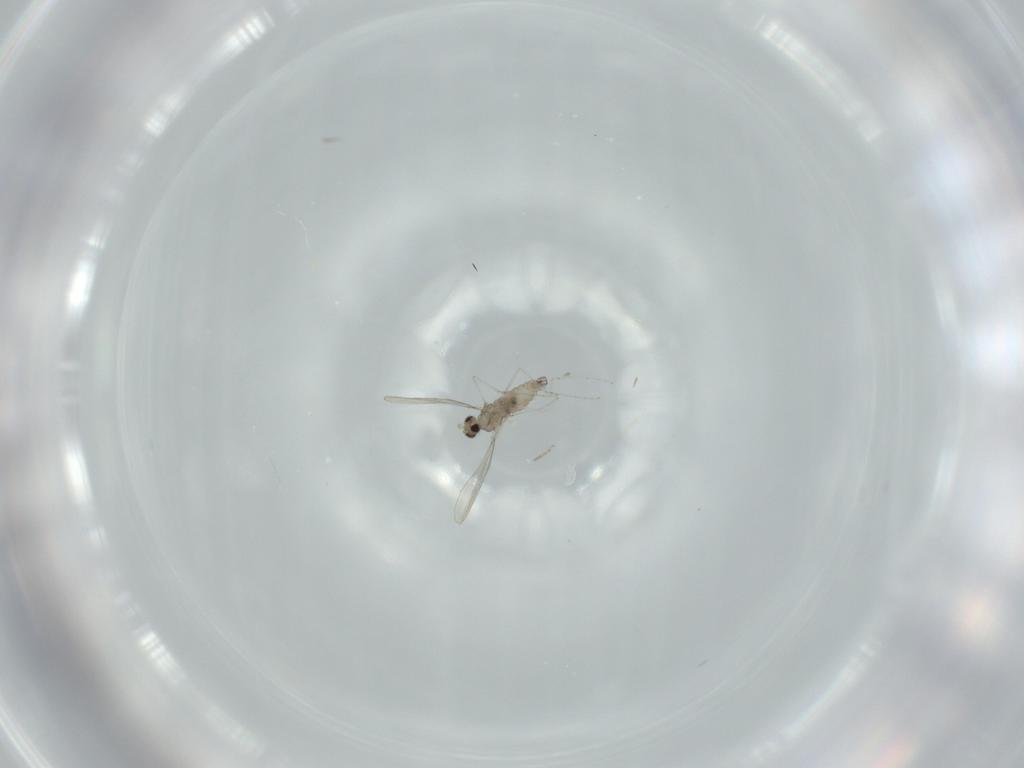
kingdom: Animalia
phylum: Arthropoda
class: Insecta
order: Diptera
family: Cecidomyiidae
